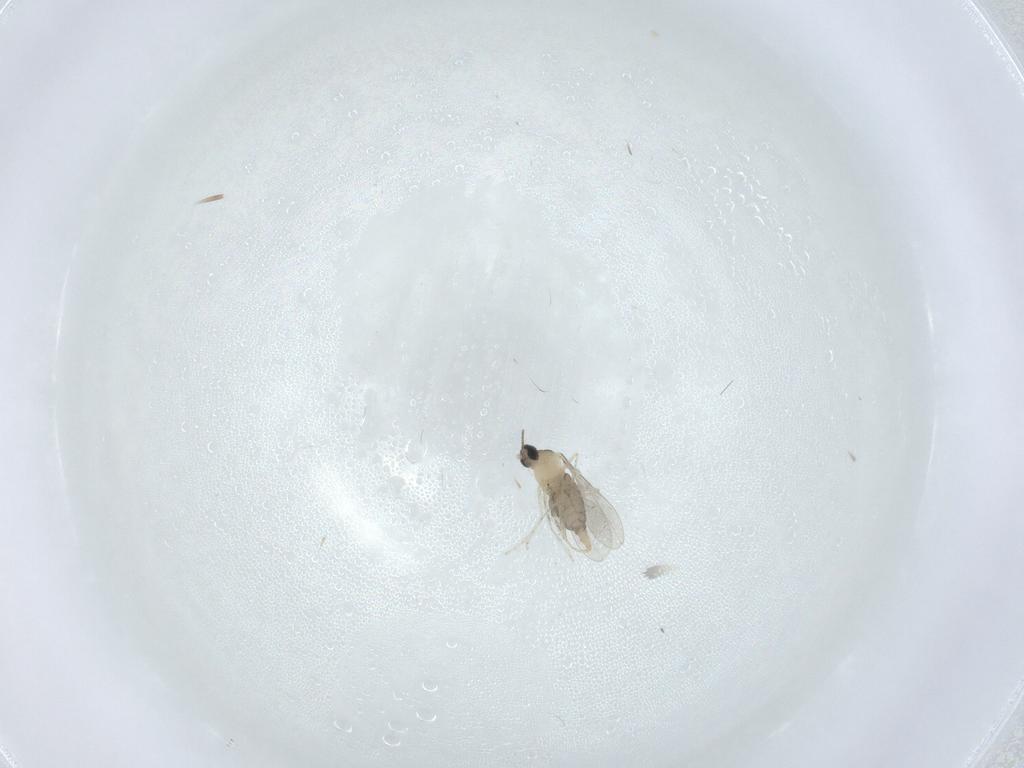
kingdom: Animalia
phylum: Arthropoda
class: Insecta
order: Diptera
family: Cecidomyiidae
